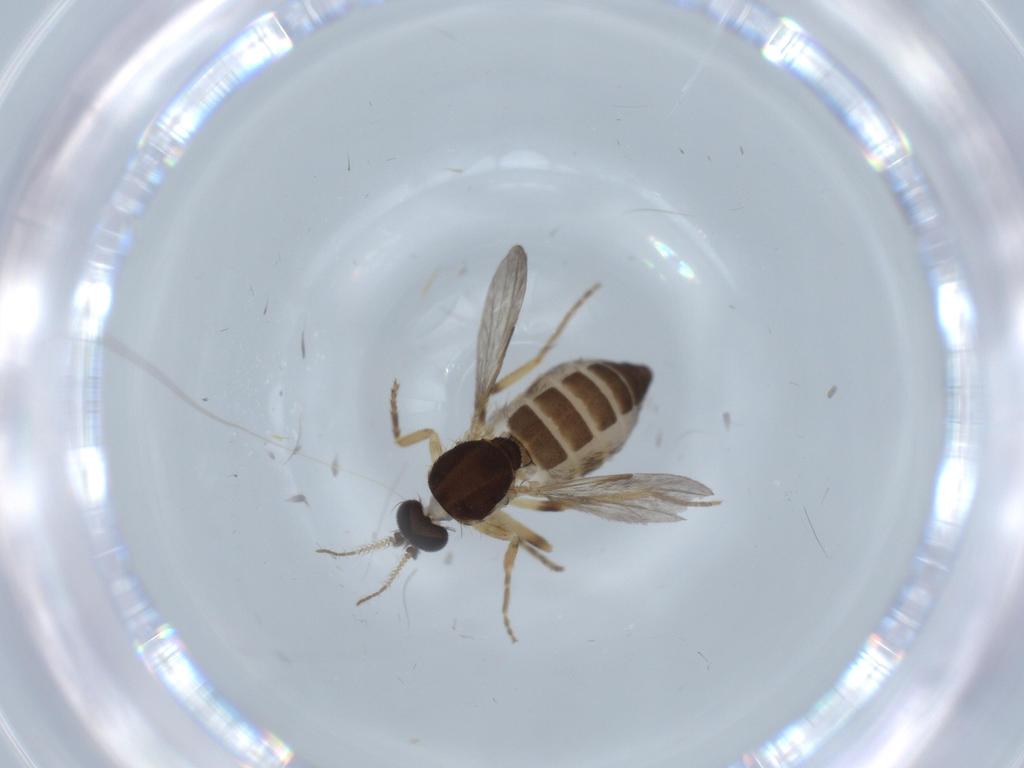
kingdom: Animalia
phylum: Arthropoda
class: Insecta
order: Diptera
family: Ceratopogonidae
